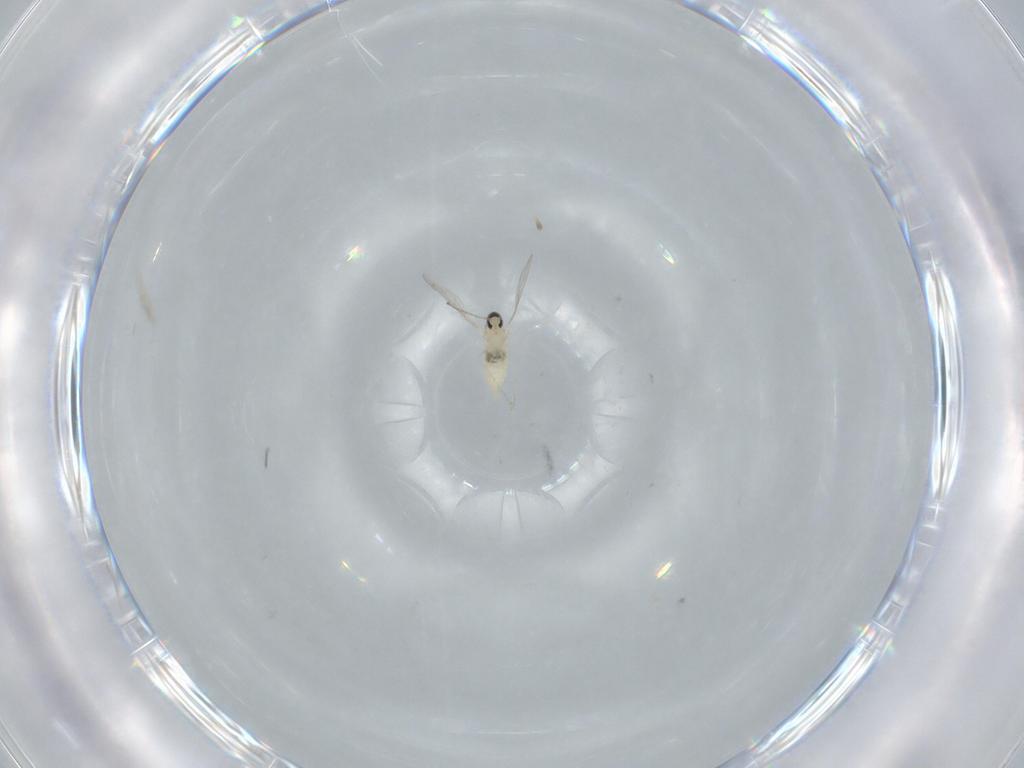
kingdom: Animalia
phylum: Arthropoda
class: Insecta
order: Diptera
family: Cecidomyiidae
